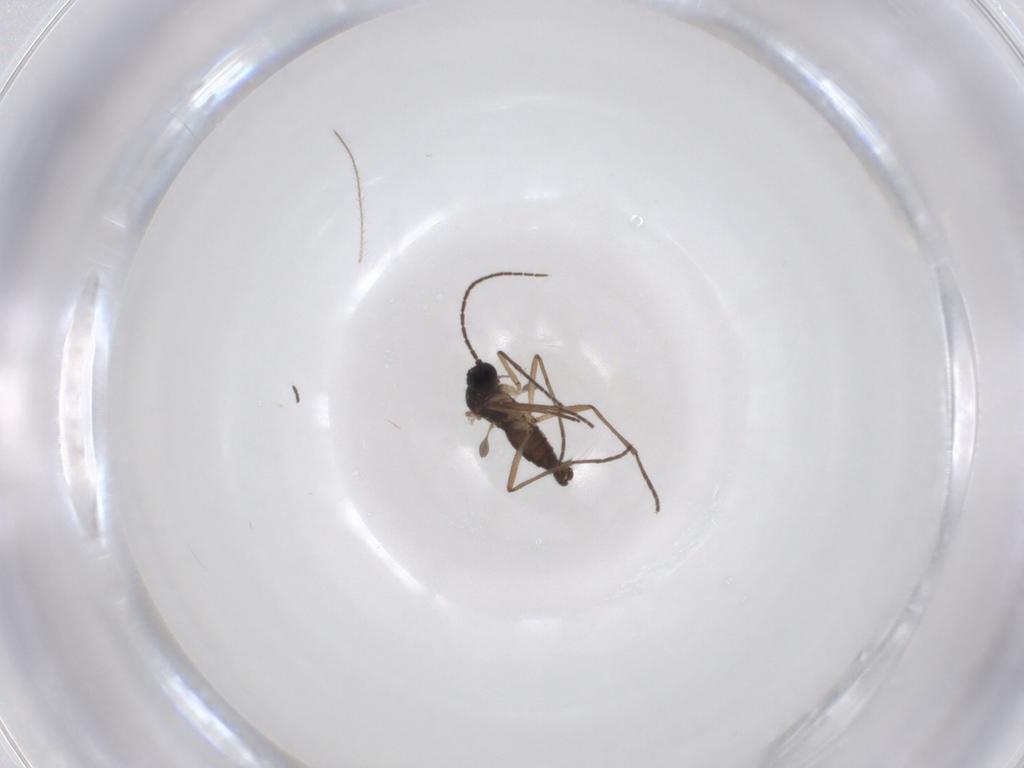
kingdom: Animalia
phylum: Arthropoda
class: Insecta
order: Diptera
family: Sciaridae
